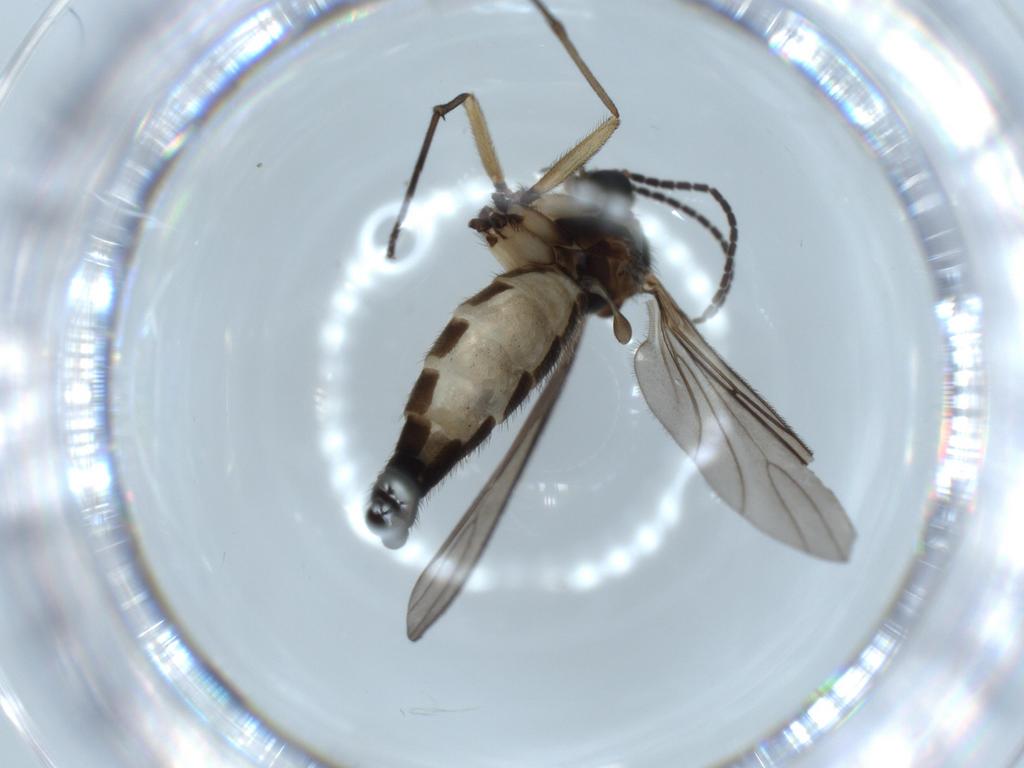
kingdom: Animalia
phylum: Arthropoda
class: Insecta
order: Diptera
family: Sciaridae
